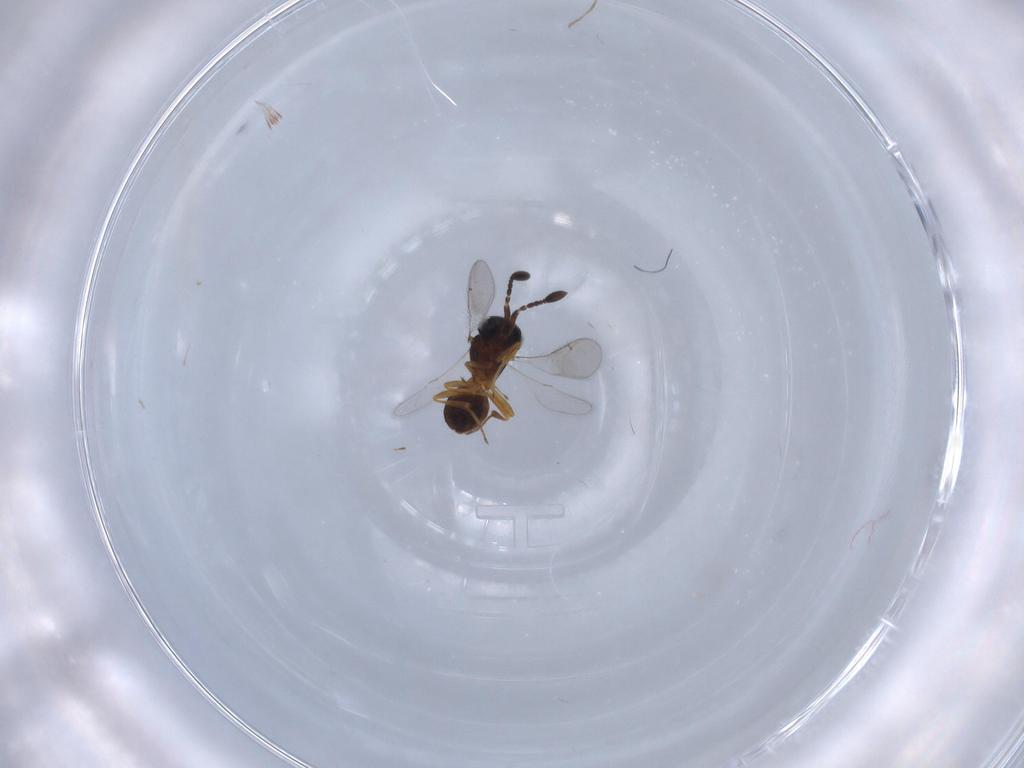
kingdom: Animalia
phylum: Arthropoda
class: Insecta
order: Hymenoptera
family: Scelionidae
